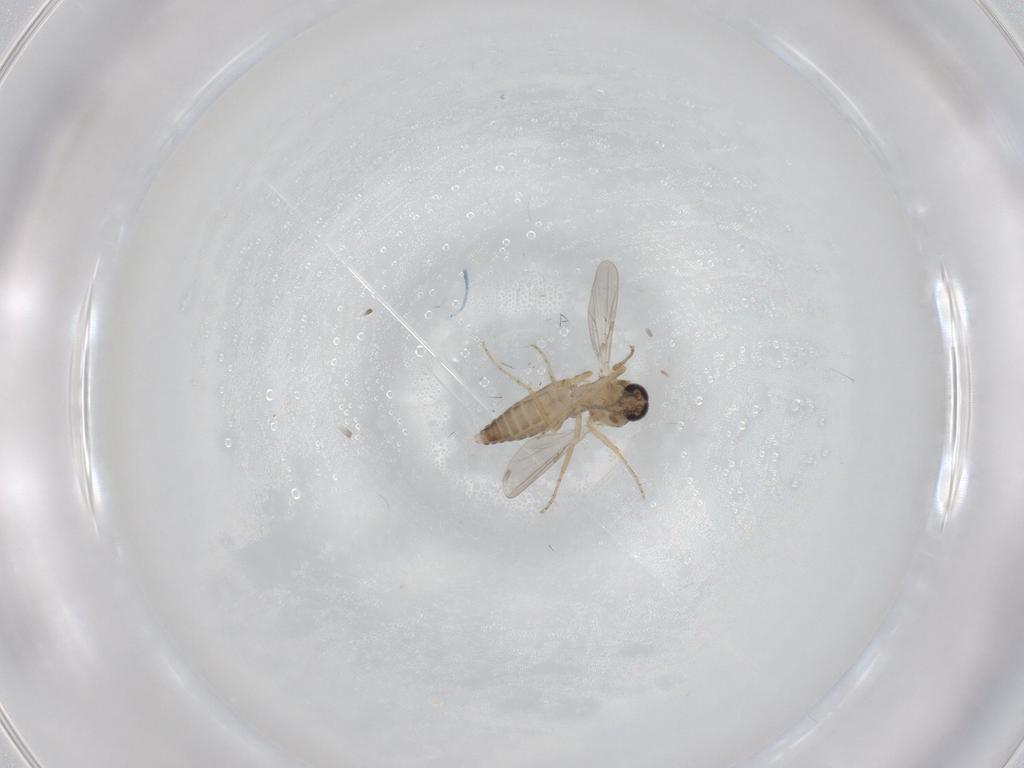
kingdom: Animalia
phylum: Arthropoda
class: Insecta
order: Diptera
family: Ceratopogonidae
